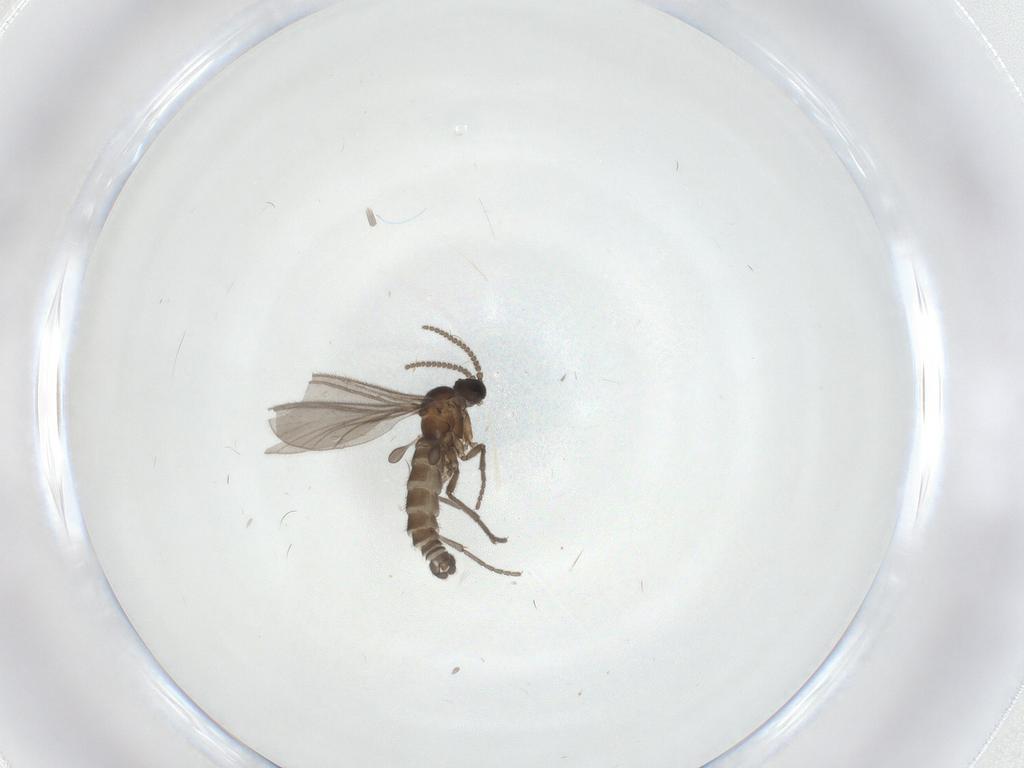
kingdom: Animalia
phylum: Arthropoda
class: Insecta
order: Diptera
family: Sciaridae
